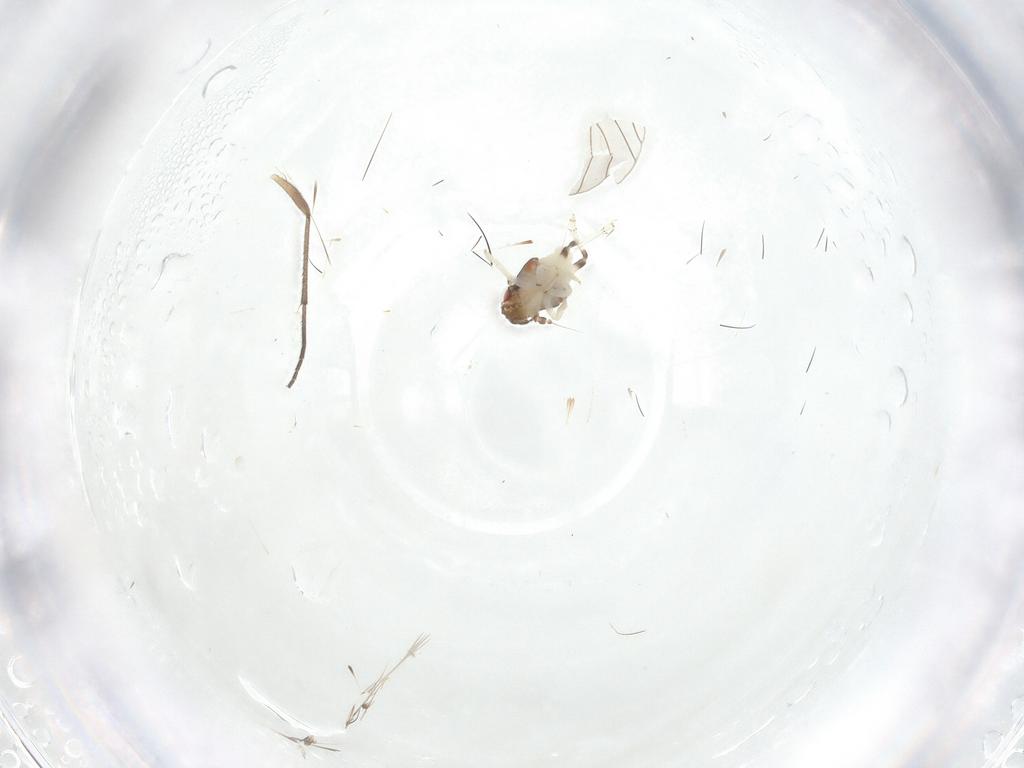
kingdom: Animalia
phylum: Arthropoda
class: Insecta
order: Diptera
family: Sciaridae
